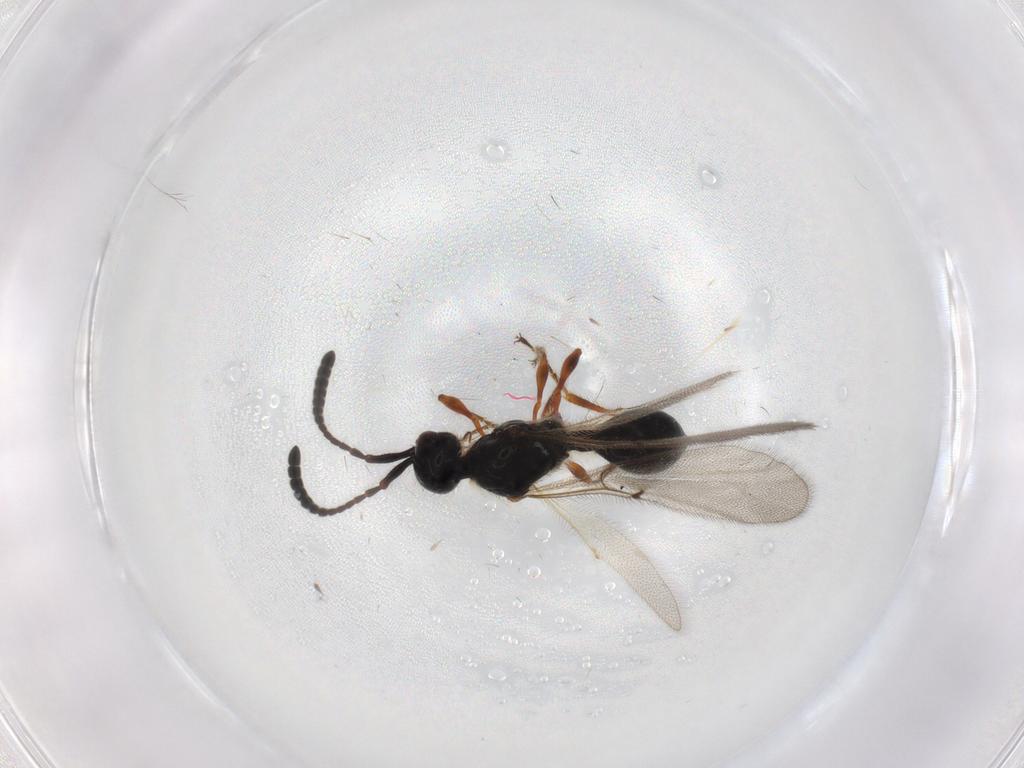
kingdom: Animalia
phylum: Arthropoda
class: Insecta
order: Hymenoptera
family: Diapriidae
